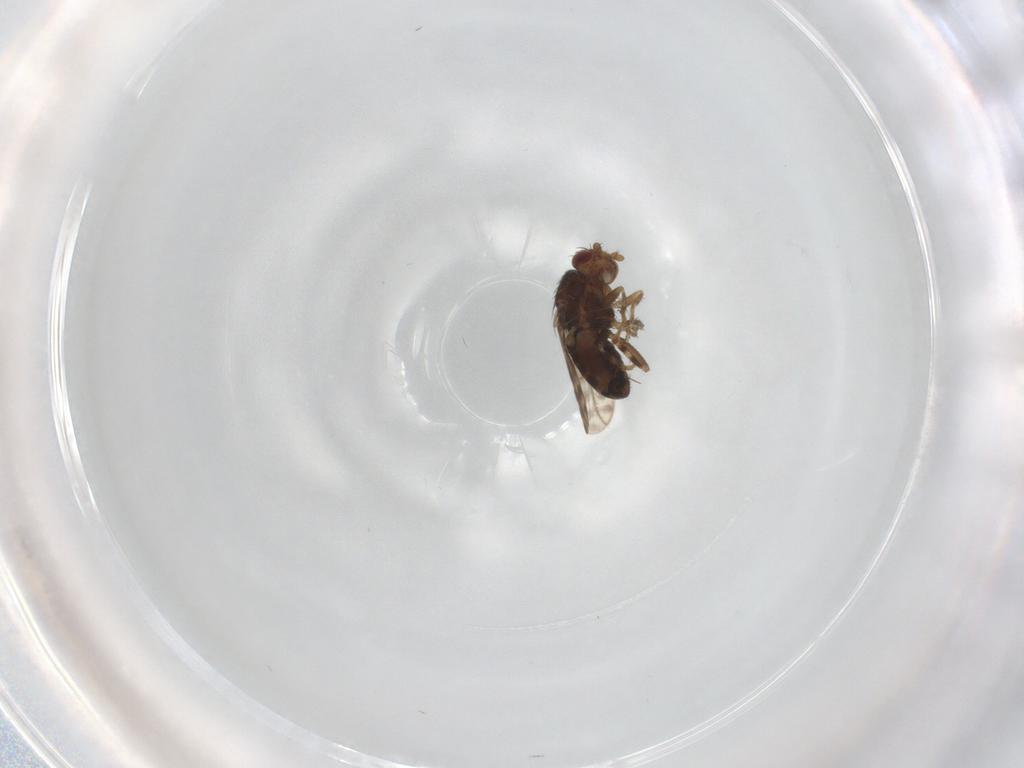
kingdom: Animalia
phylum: Arthropoda
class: Insecta
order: Diptera
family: Sphaeroceridae
